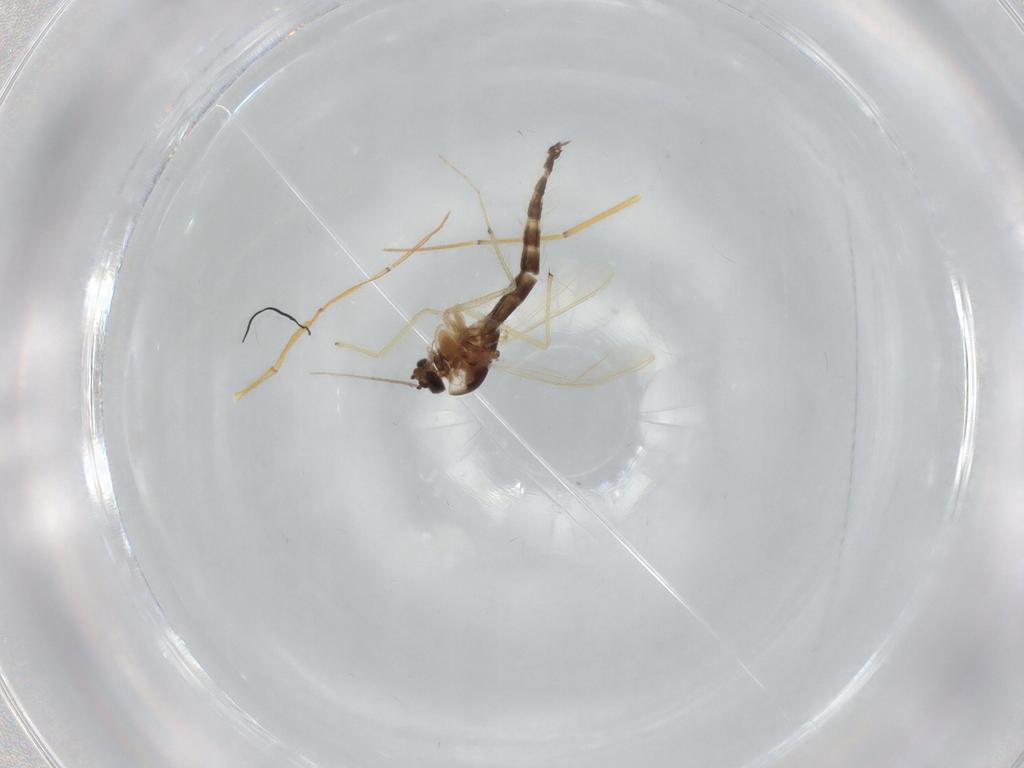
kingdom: Animalia
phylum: Arthropoda
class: Insecta
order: Diptera
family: Chironomidae
